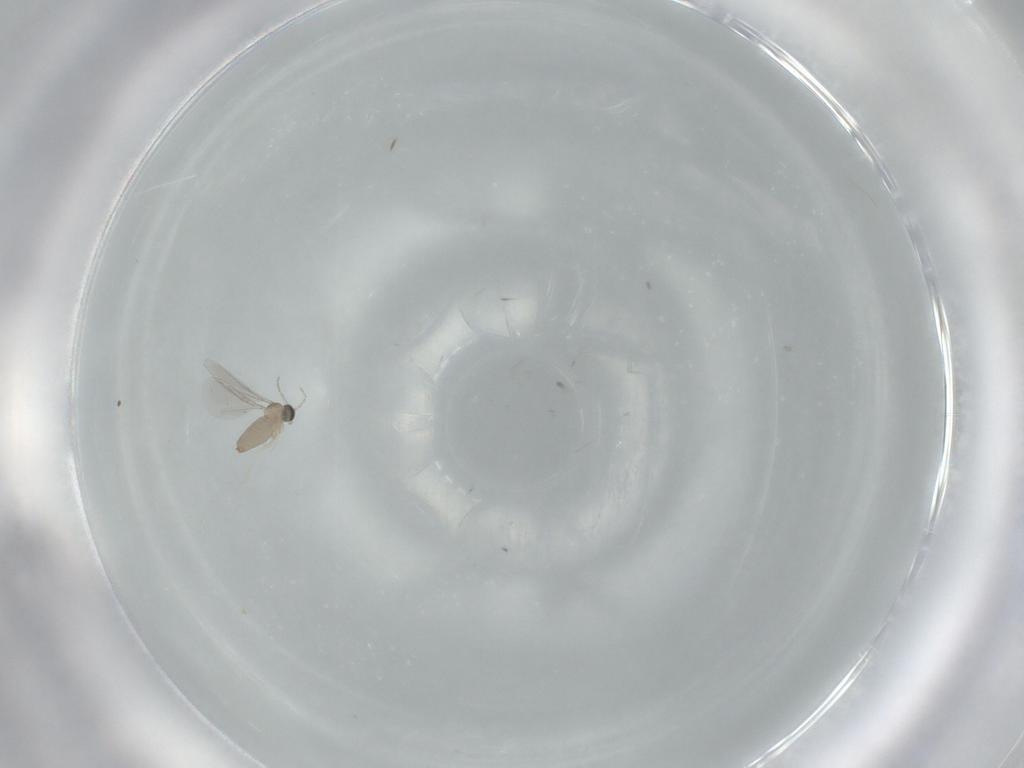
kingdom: Animalia
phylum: Arthropoda
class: Insecta
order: Diptera
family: Cecidomyiidae
